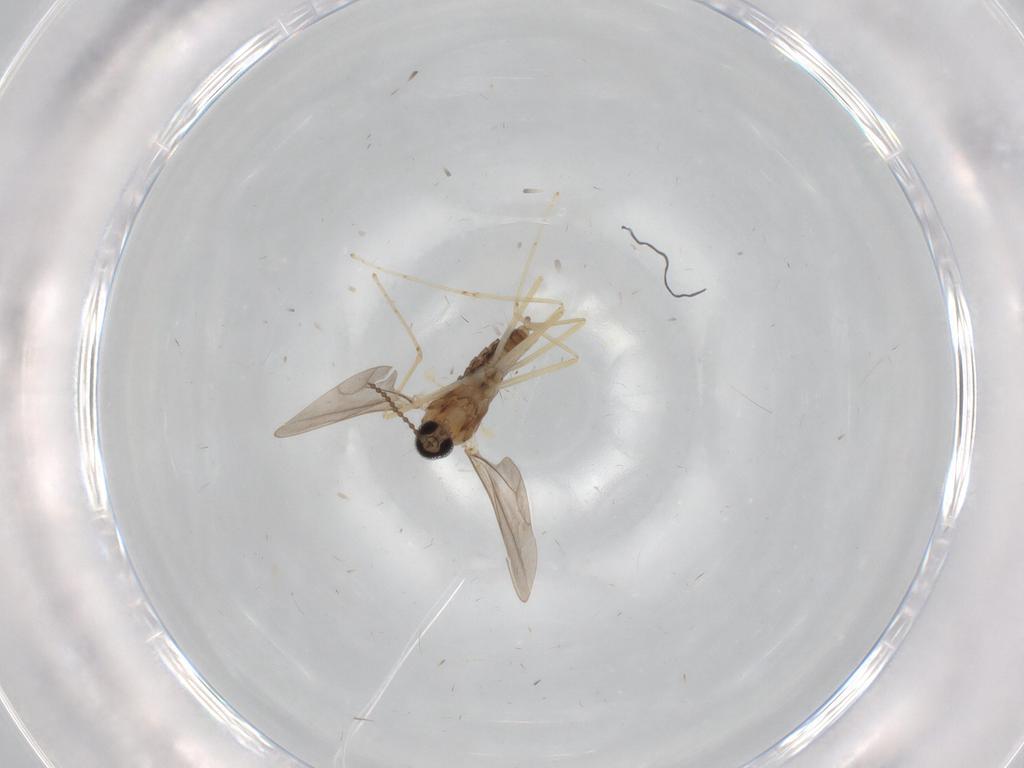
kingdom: Animalia
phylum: Arthropoda
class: Insecta
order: Diptera
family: Cecidomyiidae
